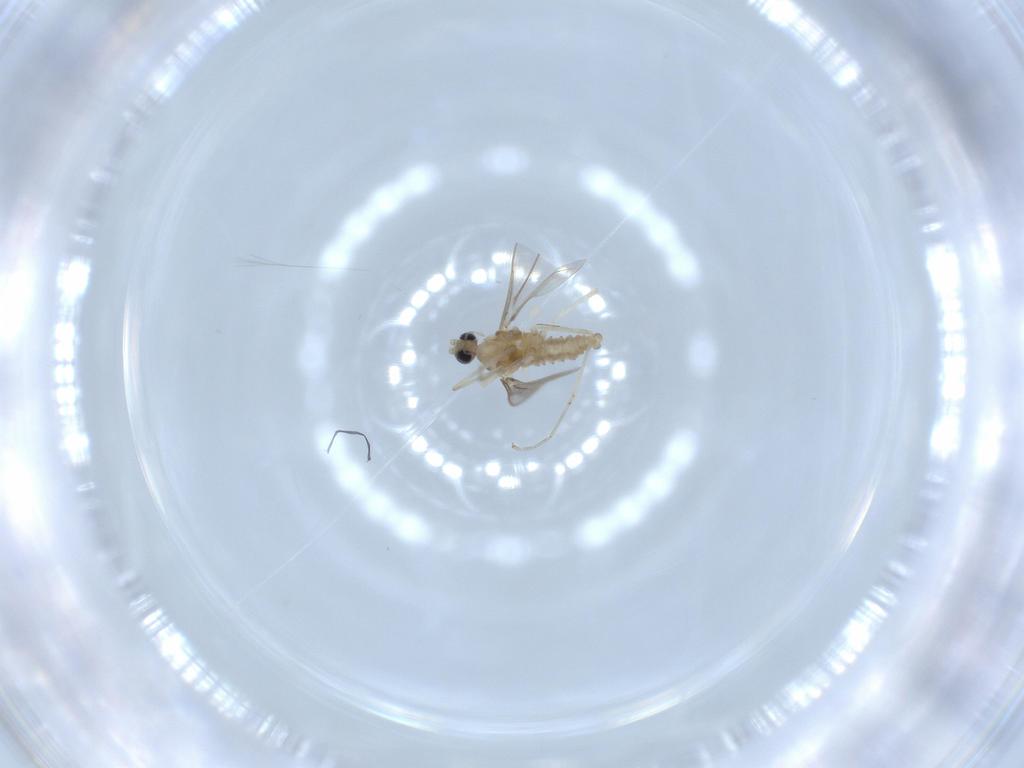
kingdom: Animalia
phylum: Arthropoda
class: Insecta
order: Diptera
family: Cecidomyiidae
